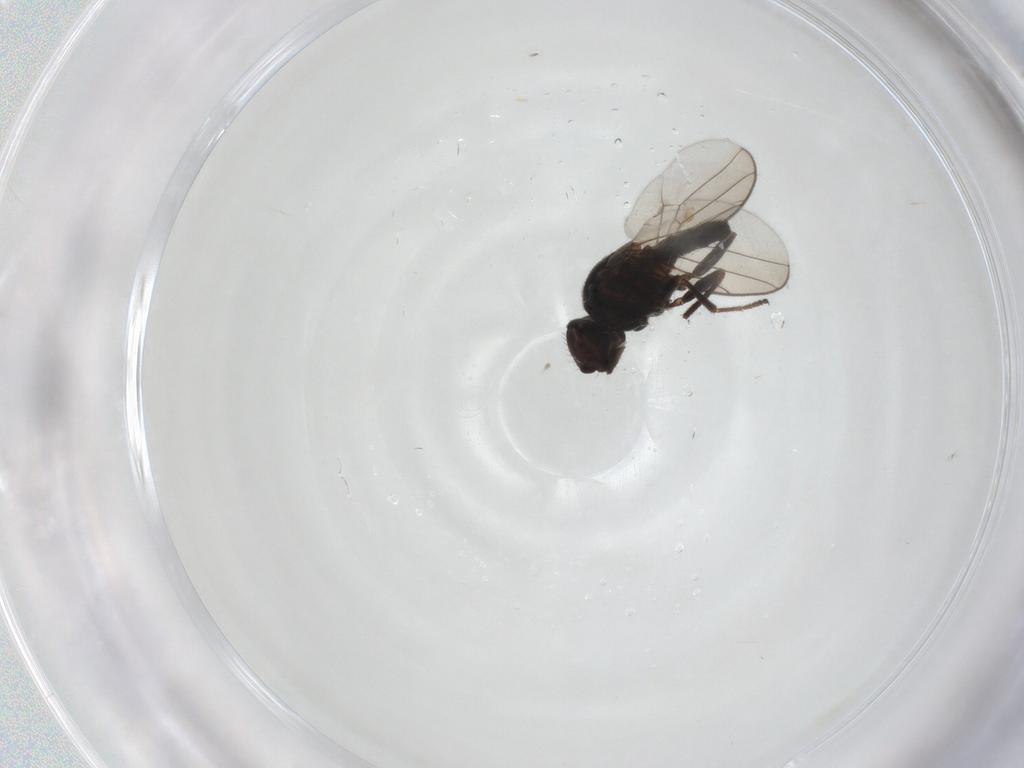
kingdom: Animalia
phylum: Arthropoda
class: Insecta
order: Diptera
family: Chloropidae
